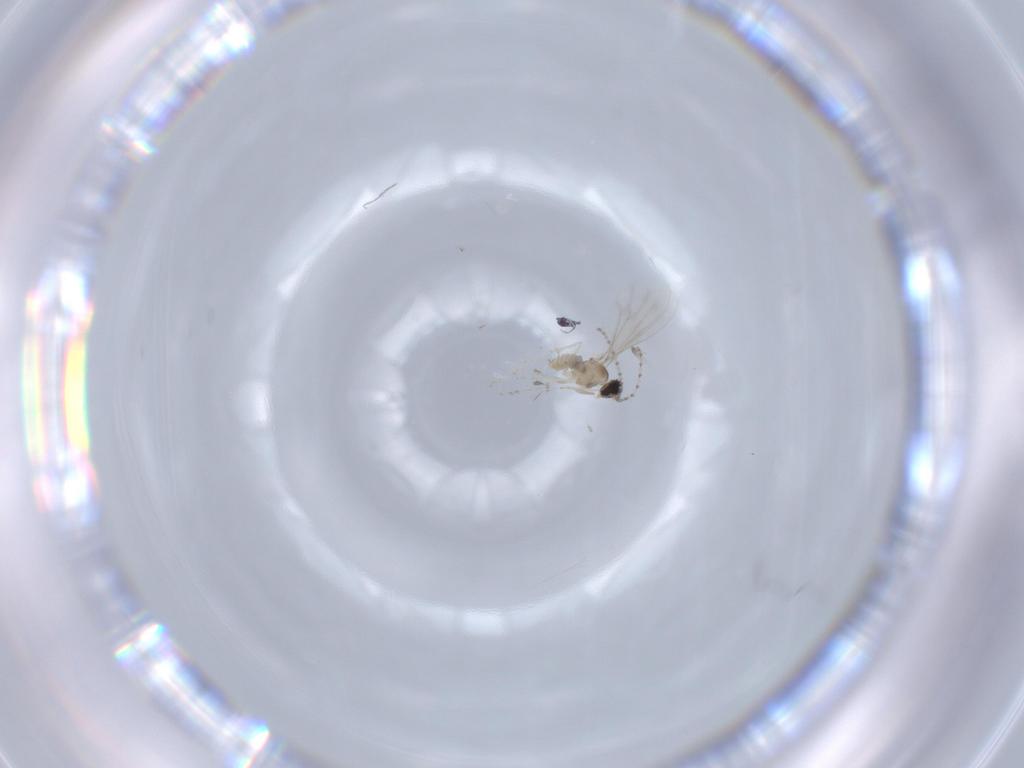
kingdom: Animalia
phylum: Arthropoda
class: Insecta
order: Diptera
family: Cecidomyiidae
